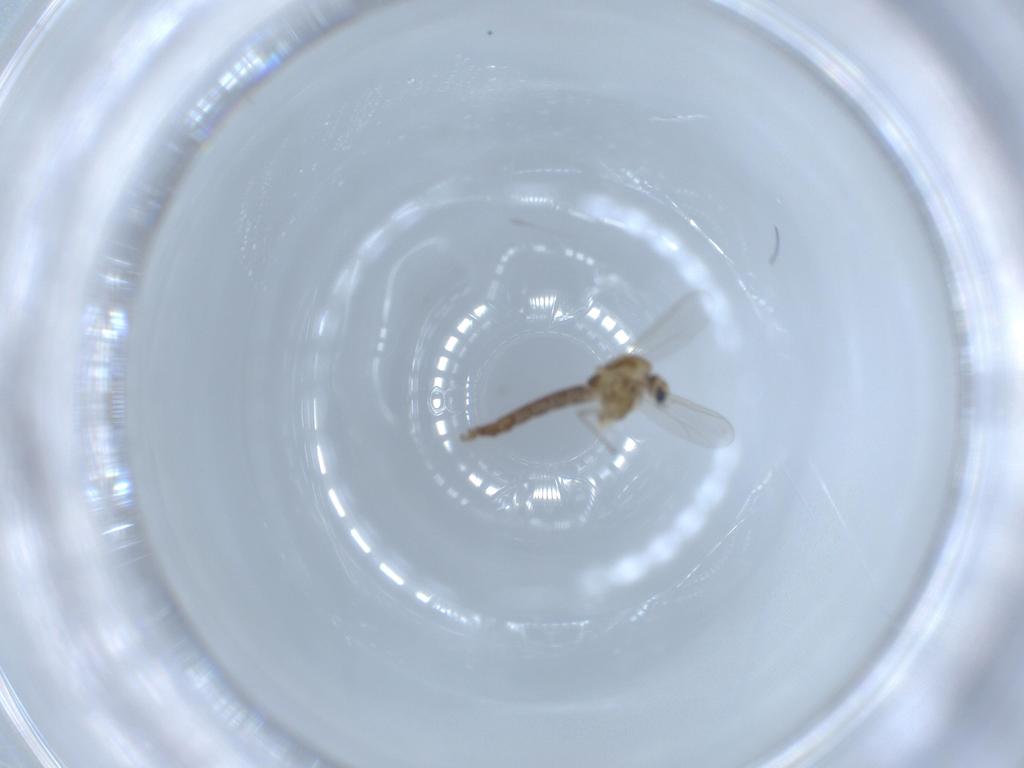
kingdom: Animalia
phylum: Arthropoda
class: Insecta
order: Diptera
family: Chironomidae
